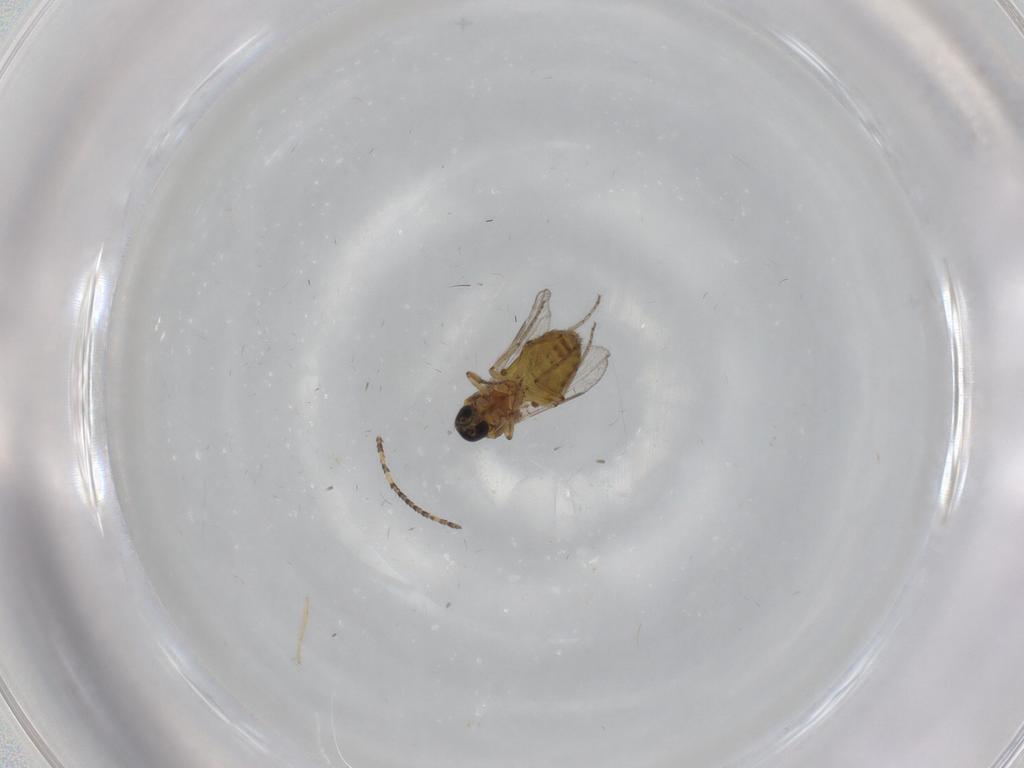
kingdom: Animalia
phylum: Arthropoda
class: Insecta
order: Diptera
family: Ceratopogonidae
